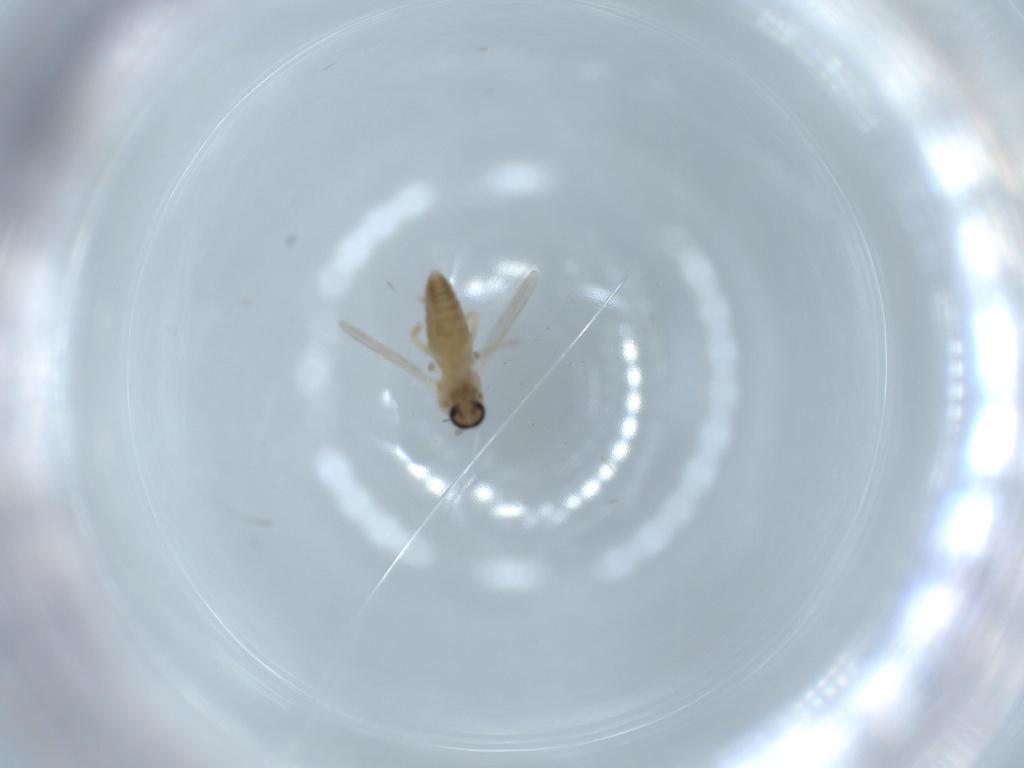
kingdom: Animalia
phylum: Arthropoda
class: Insecta
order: Diptera
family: Ceratopogonidae
